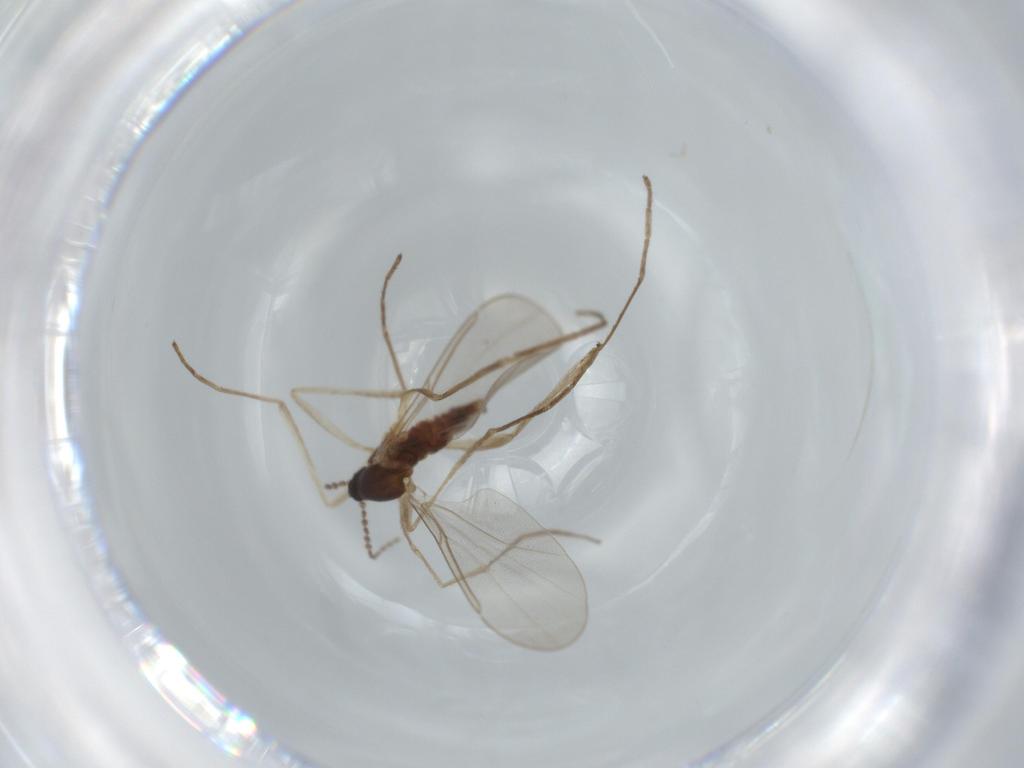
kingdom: Animalia
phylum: Arthropoda
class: Insecta
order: Diptera
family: Cecidomyiidae
